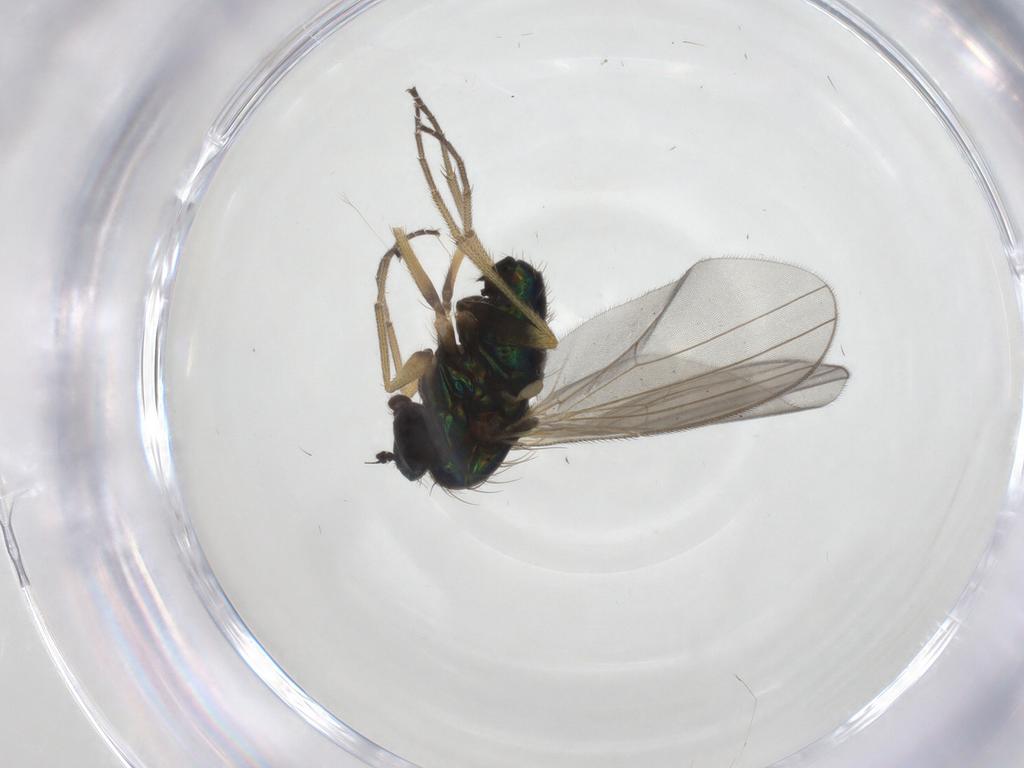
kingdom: Animalia
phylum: Arthropoda
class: Insecta
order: Diptera
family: Dolichopodidae
